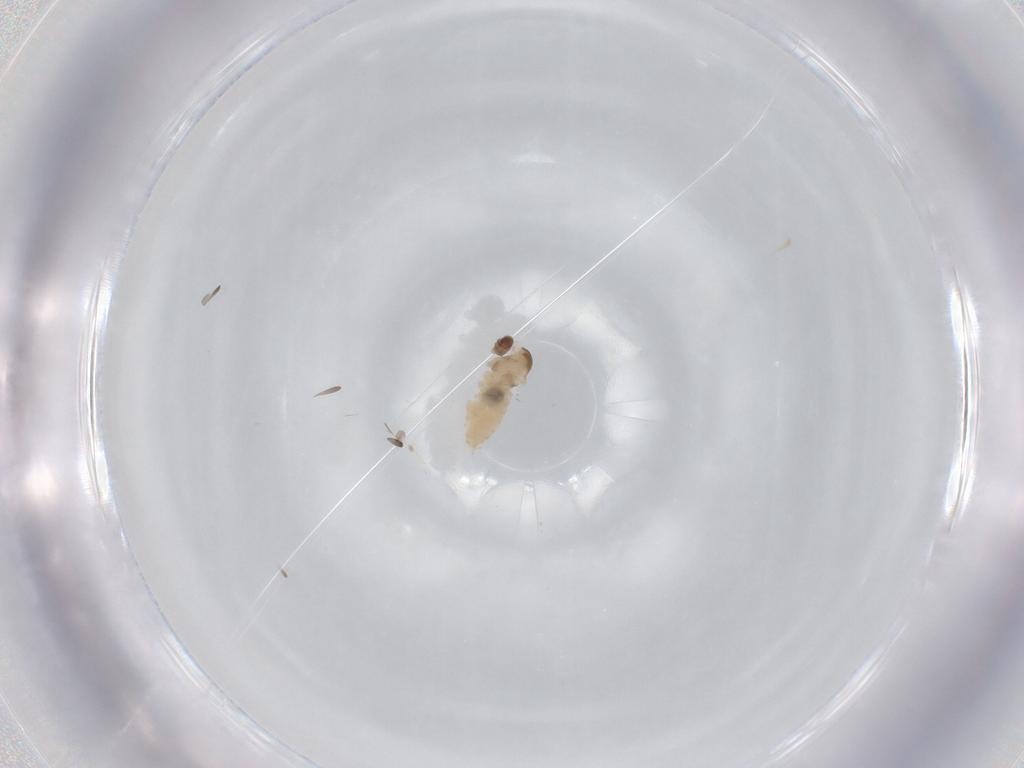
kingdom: Animalia
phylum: Arthropoda
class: Insecta
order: Diptera
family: Cecidomyiidae
